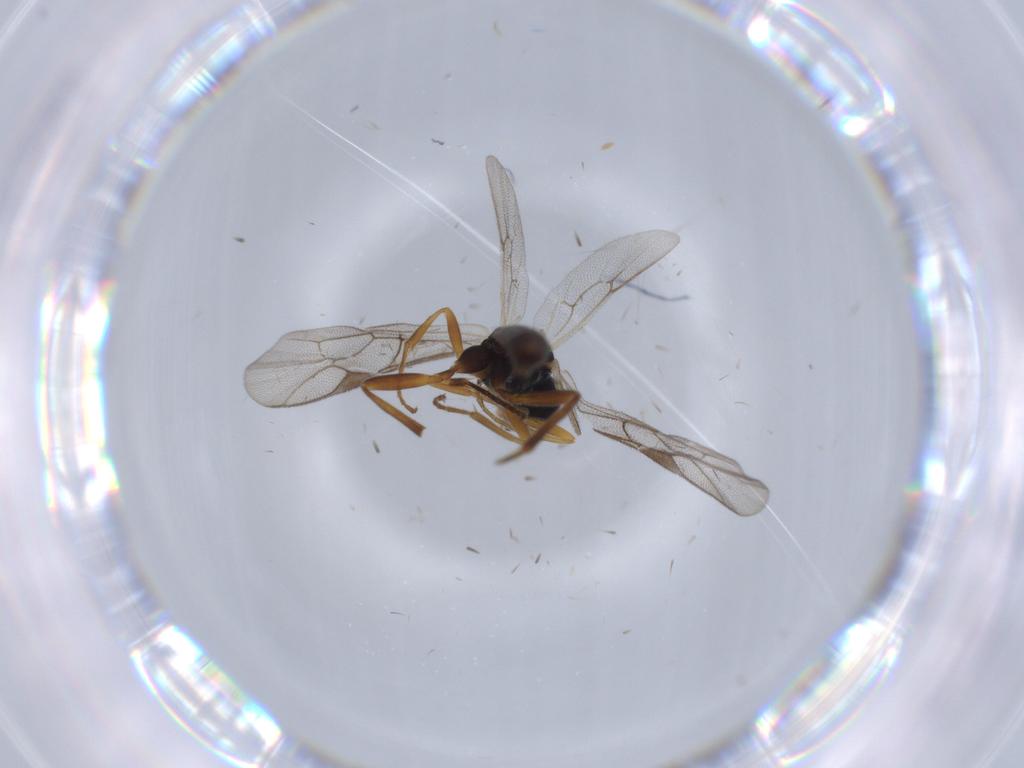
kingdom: Animalia
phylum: Arthropoda
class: Insecta
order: Hymenoptera
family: Ichneumonidae
